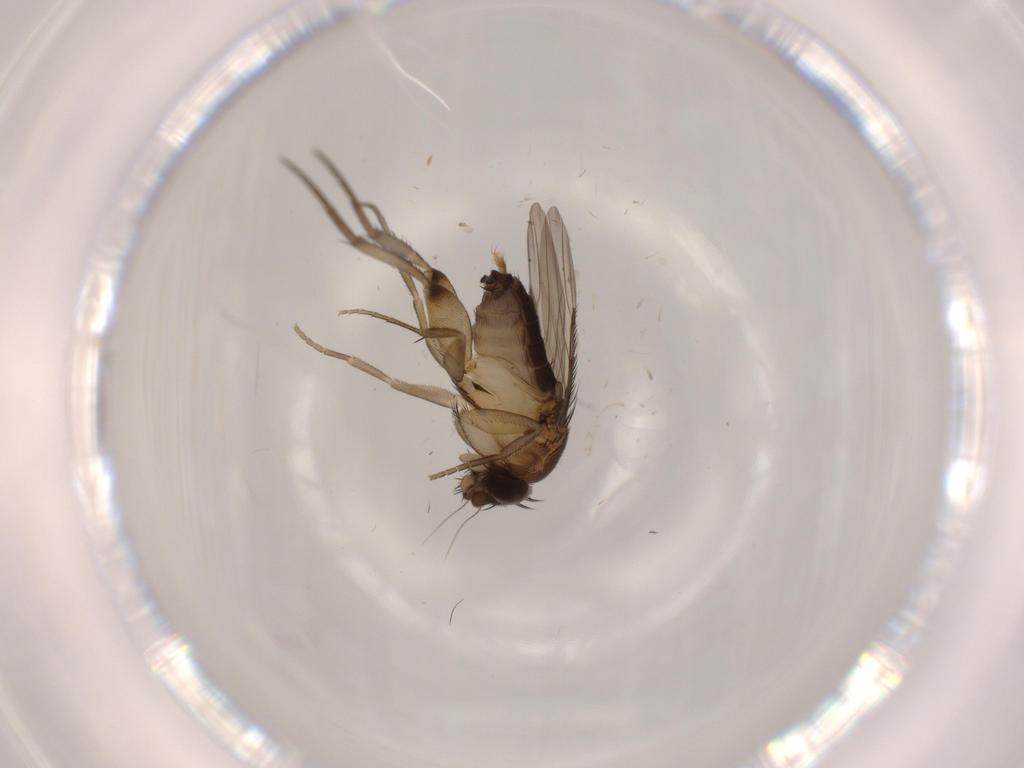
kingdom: Animalia
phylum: Arthropoda
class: Insecta
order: Diptera
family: Phoridae
